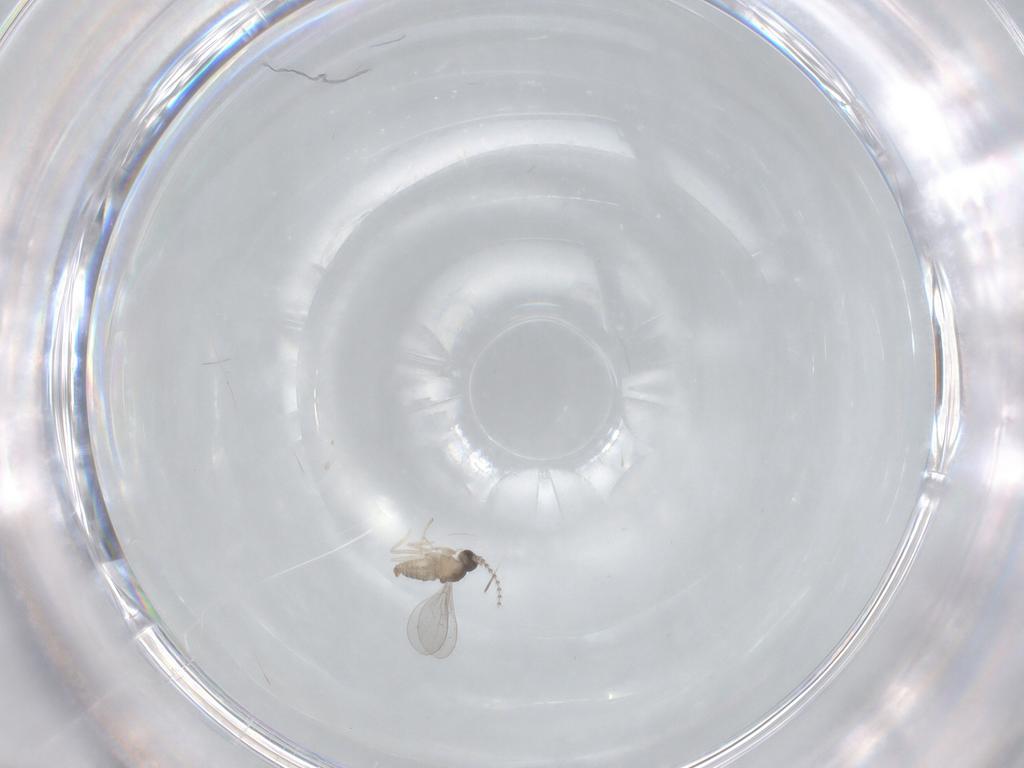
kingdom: Animalia
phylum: Arthropoda
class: Insecta
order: Diptera
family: Cecidomyiidae
